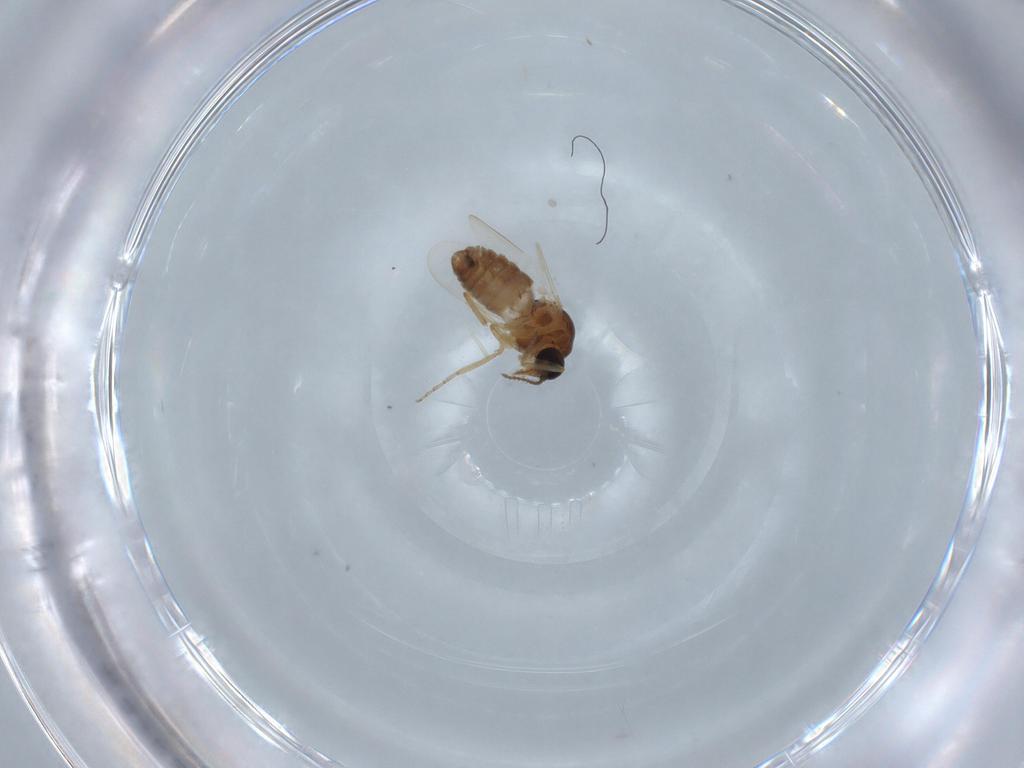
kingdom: Animalia
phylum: Arthropoda
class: Insecta
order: Diptera
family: Ceratopogonidae
